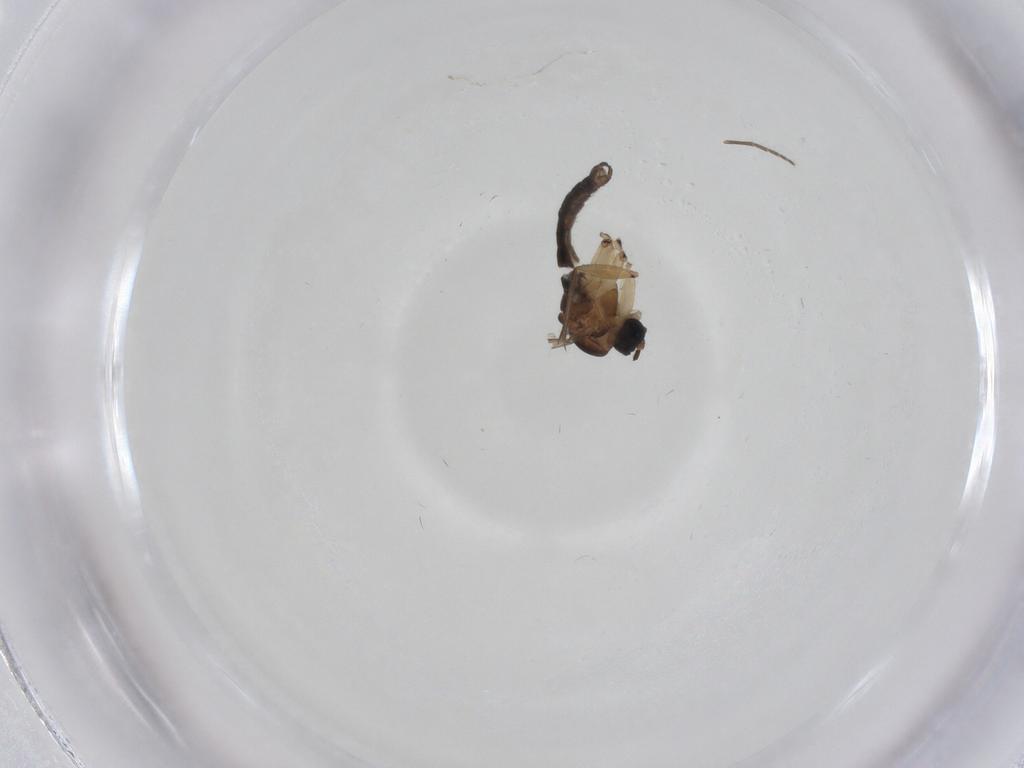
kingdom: Animalia
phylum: Arthropoda
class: Insecta
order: Diptera
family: Sciaridae
